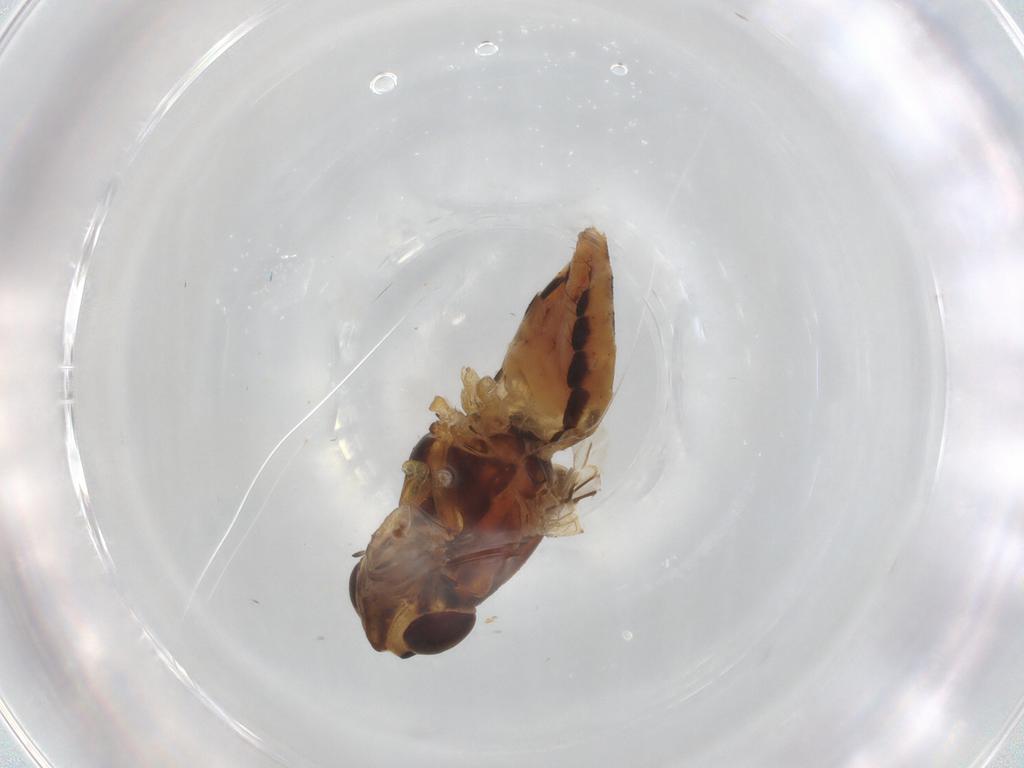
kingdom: Animalia
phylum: Arthropoda
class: Insecta
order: Diptera
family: Lauxaniidae
